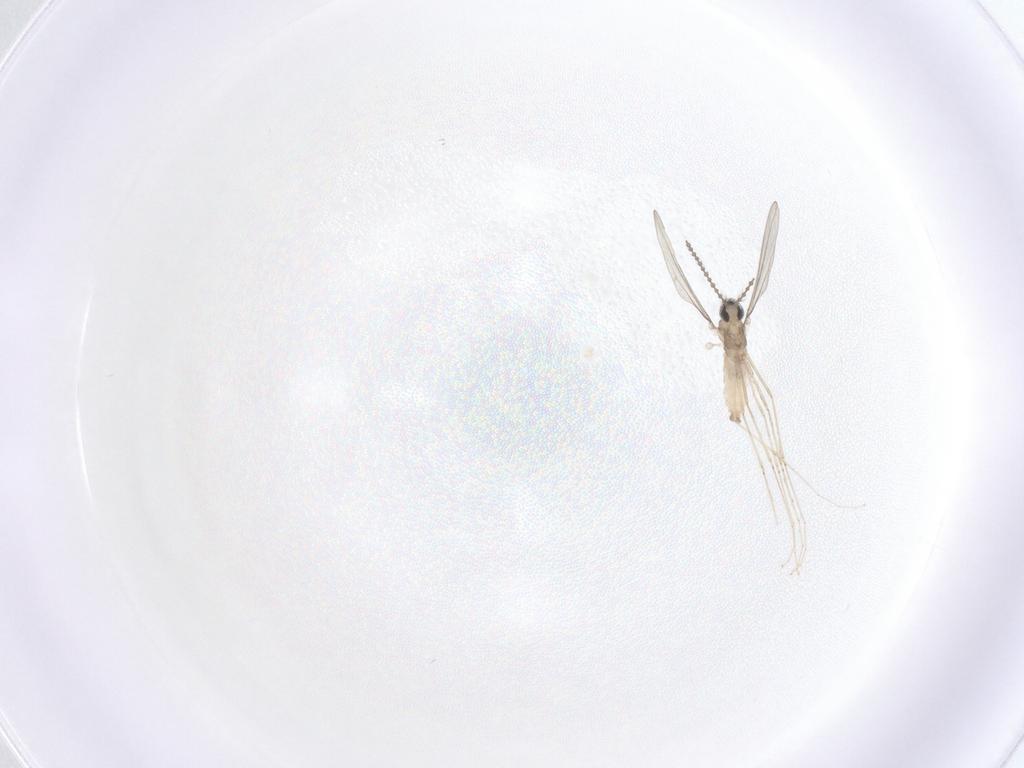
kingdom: Animalia
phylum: Arthropoda
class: Insecta
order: Diptera
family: Cecidomyiidae
